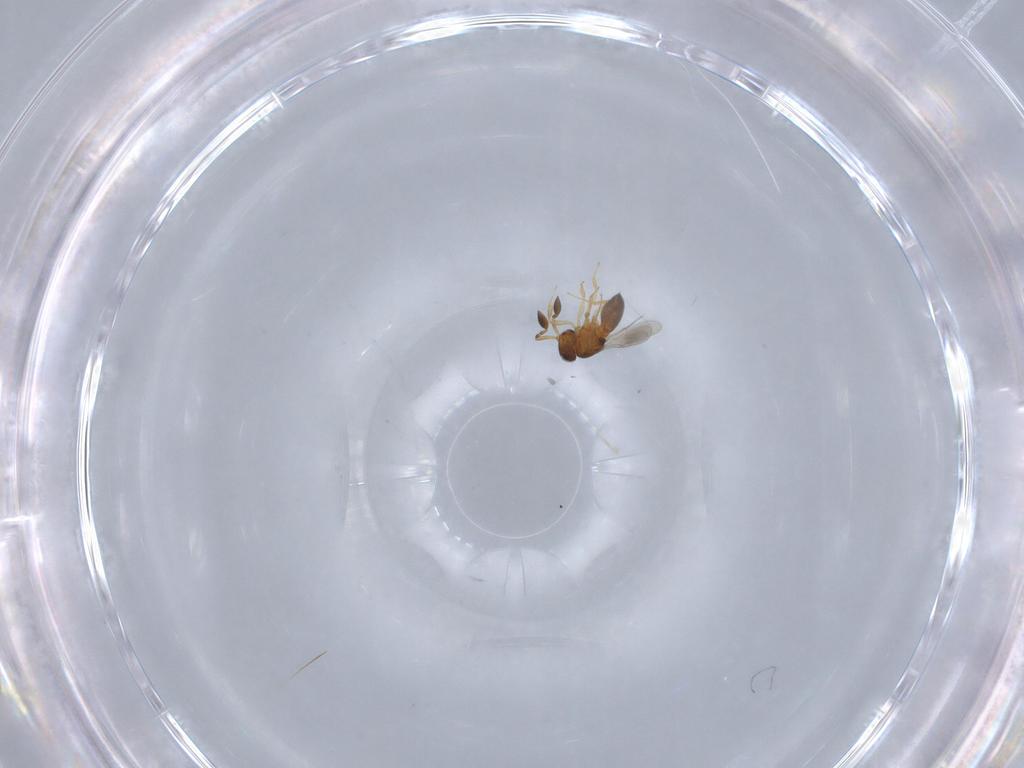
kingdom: Animalia
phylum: Arthropoda
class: Insecta
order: Hymenoptera
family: Scelionidae
